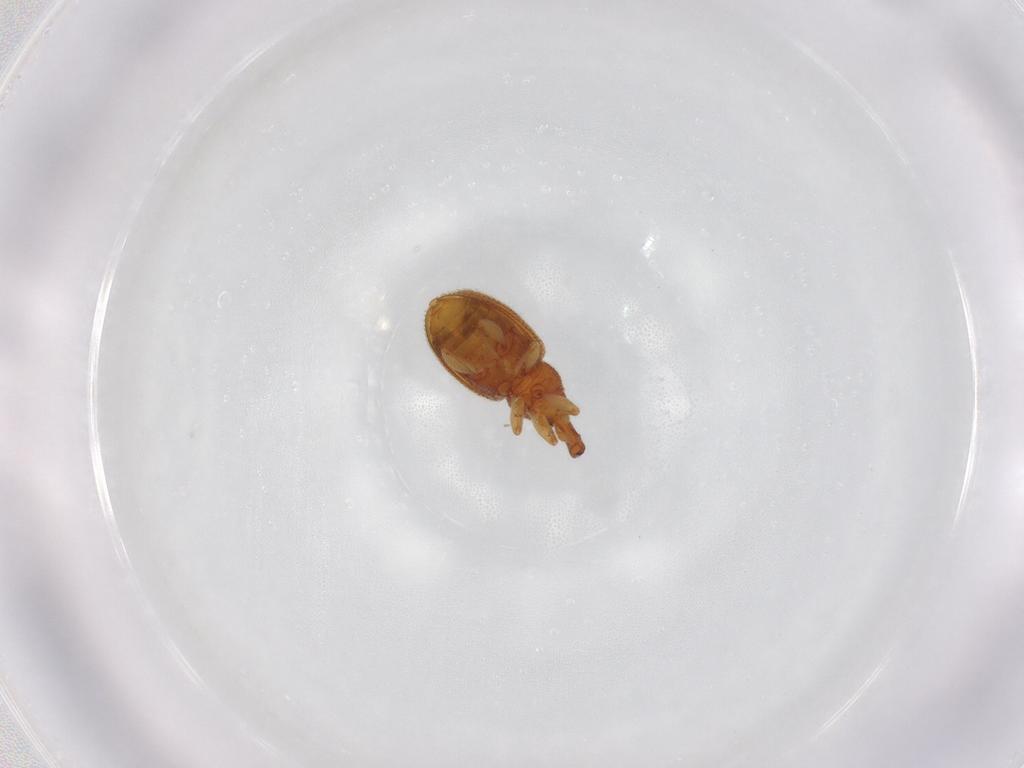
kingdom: Animalia
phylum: Arthropoda
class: Insecta
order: Coleoptera
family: Curculionidae
